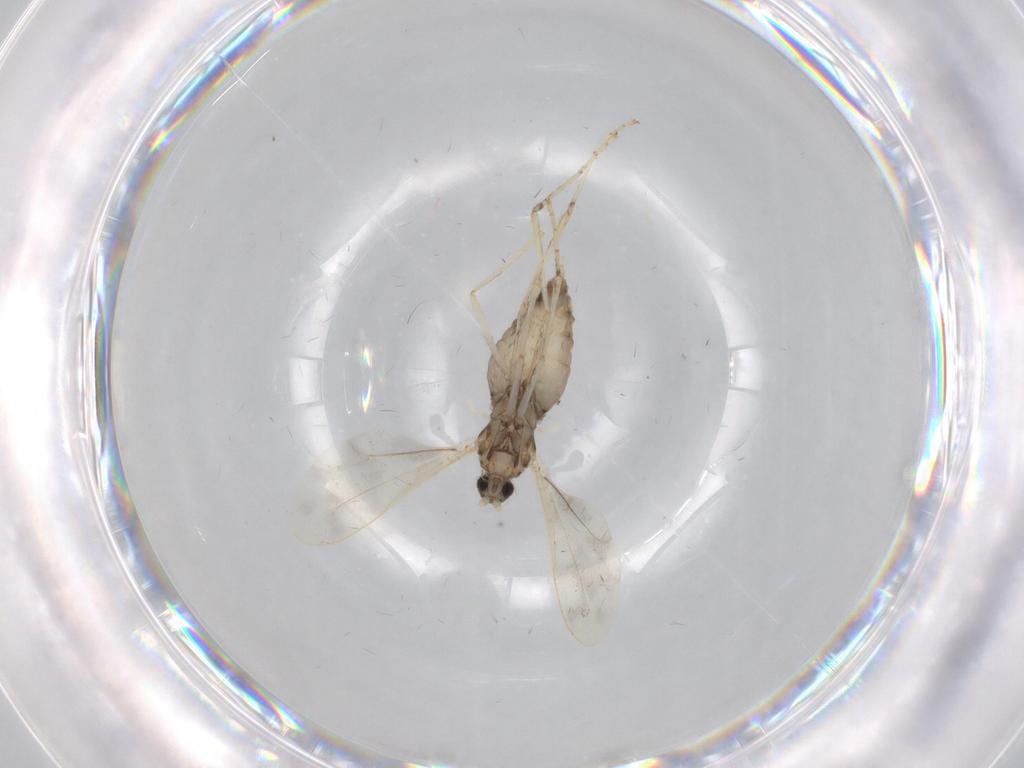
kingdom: Animalia
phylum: Arthropoda
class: Insecta
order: Diptera
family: Cecidomyiidae
